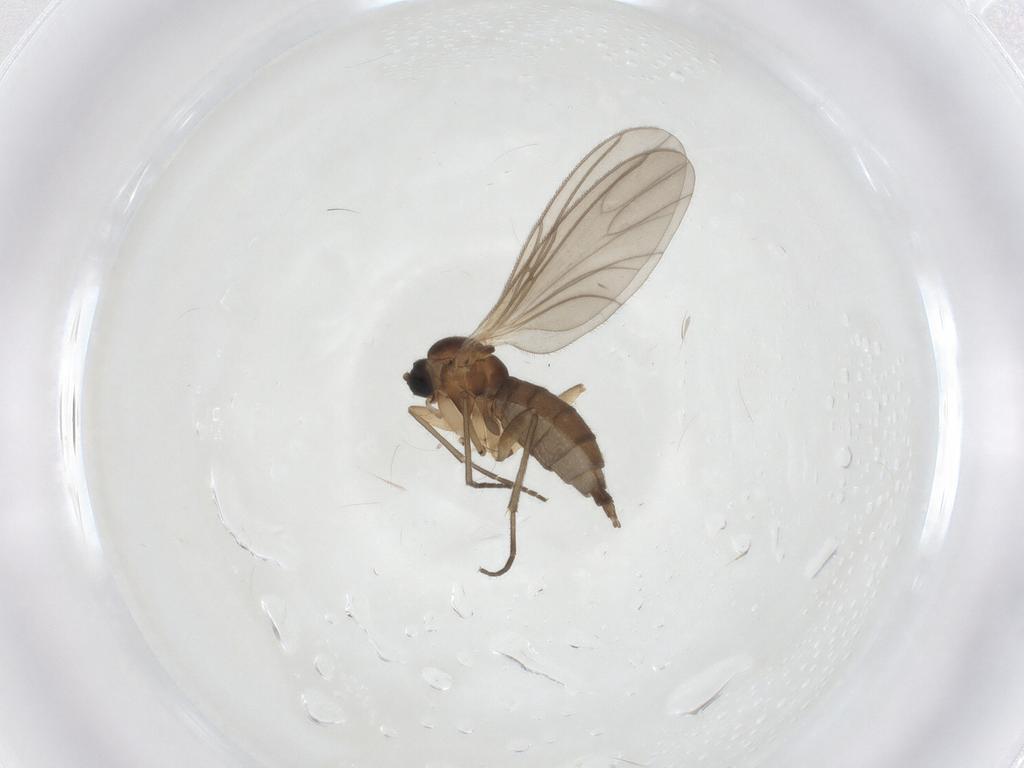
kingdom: Animalia
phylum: Arthropoda
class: Insecta
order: Diptera
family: Sciaridae
